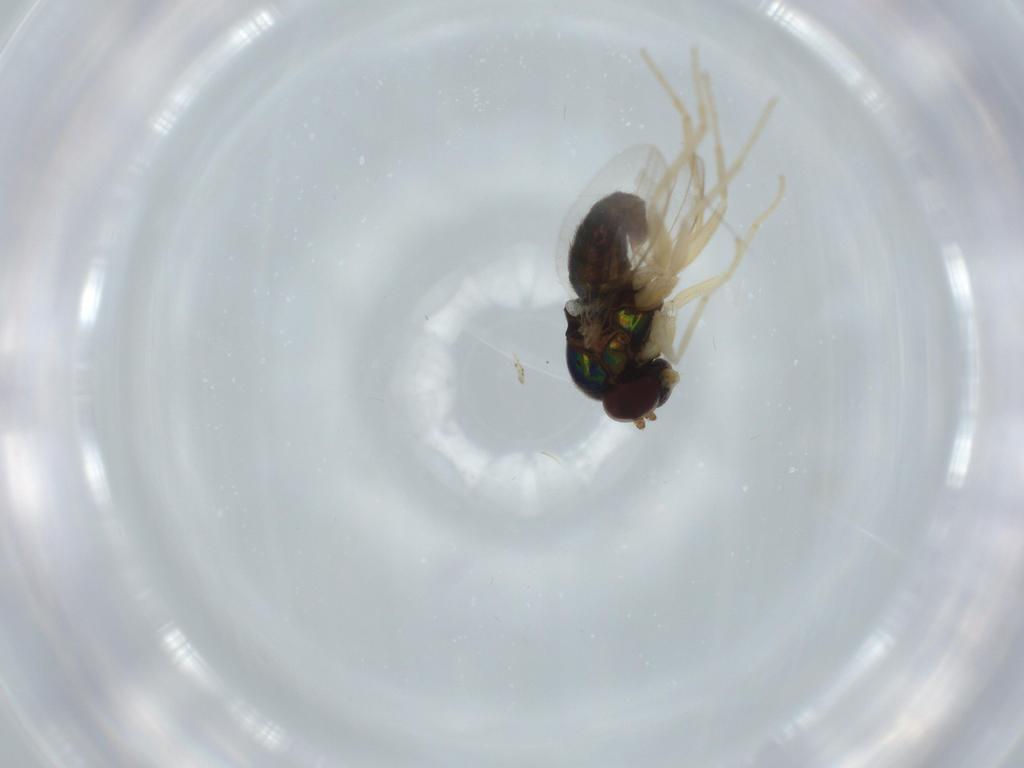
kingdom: Animalia
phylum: Arthropoda
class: Insecta
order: Diptera
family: Dolichopodidae
